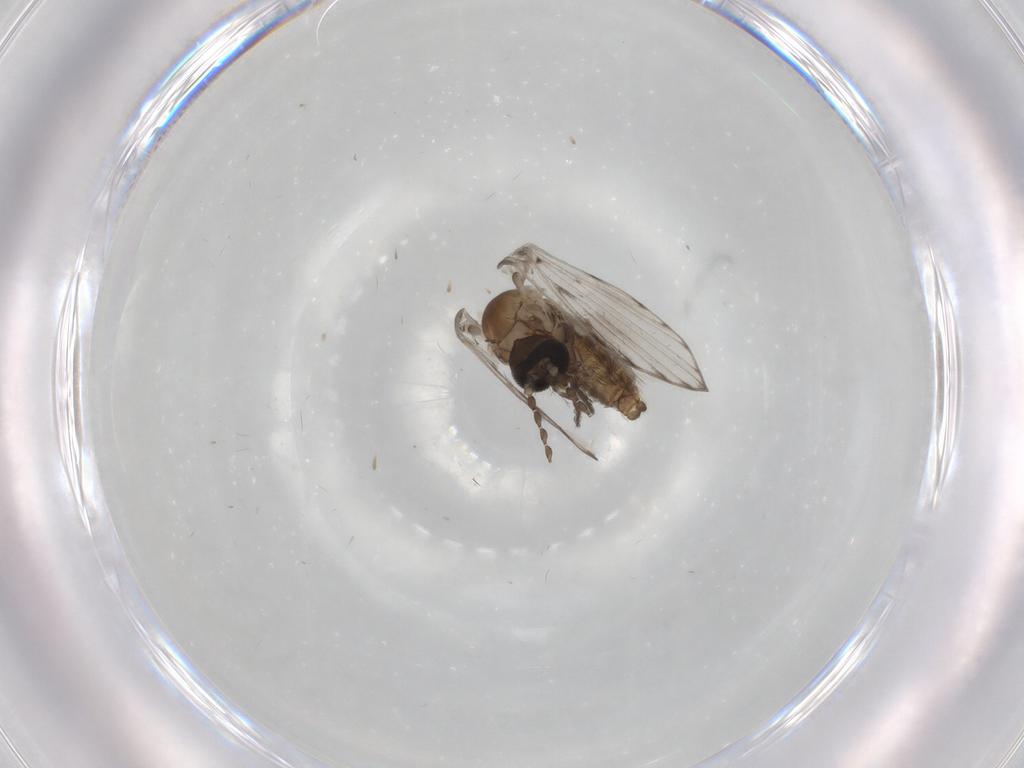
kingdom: Animalia
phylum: Arthropoda
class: Insecta
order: Diptera
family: Psychodidae
